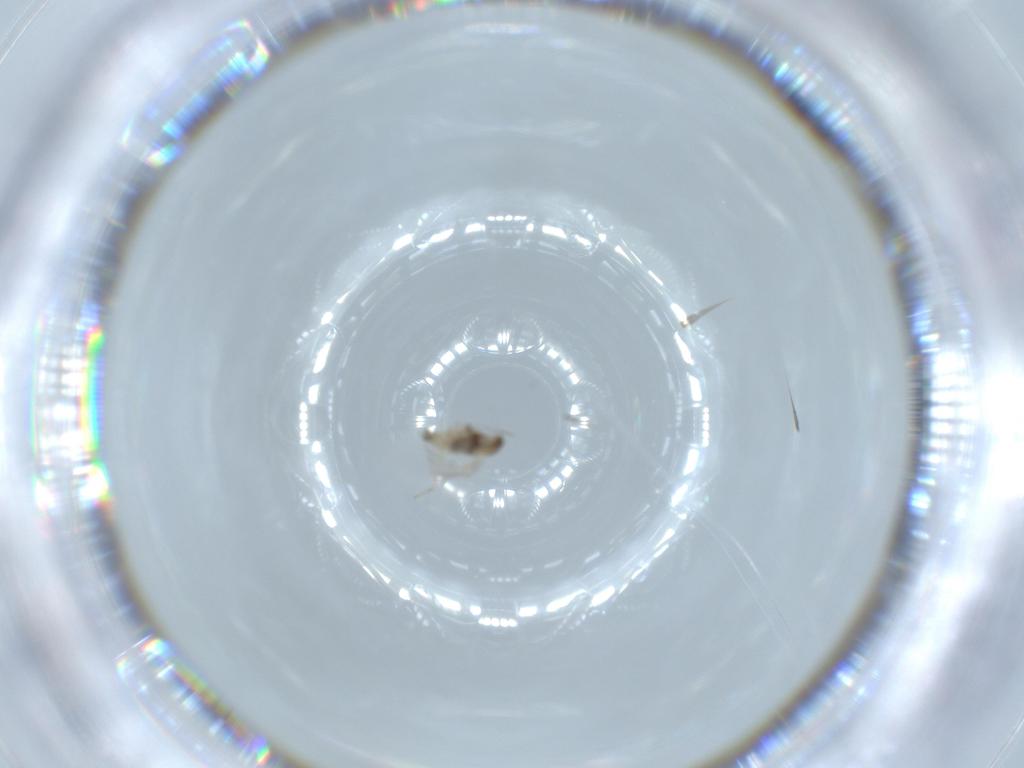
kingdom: Animalia
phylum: Arthropoda
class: Insecta
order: Diptera
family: Cecidomyiidae
